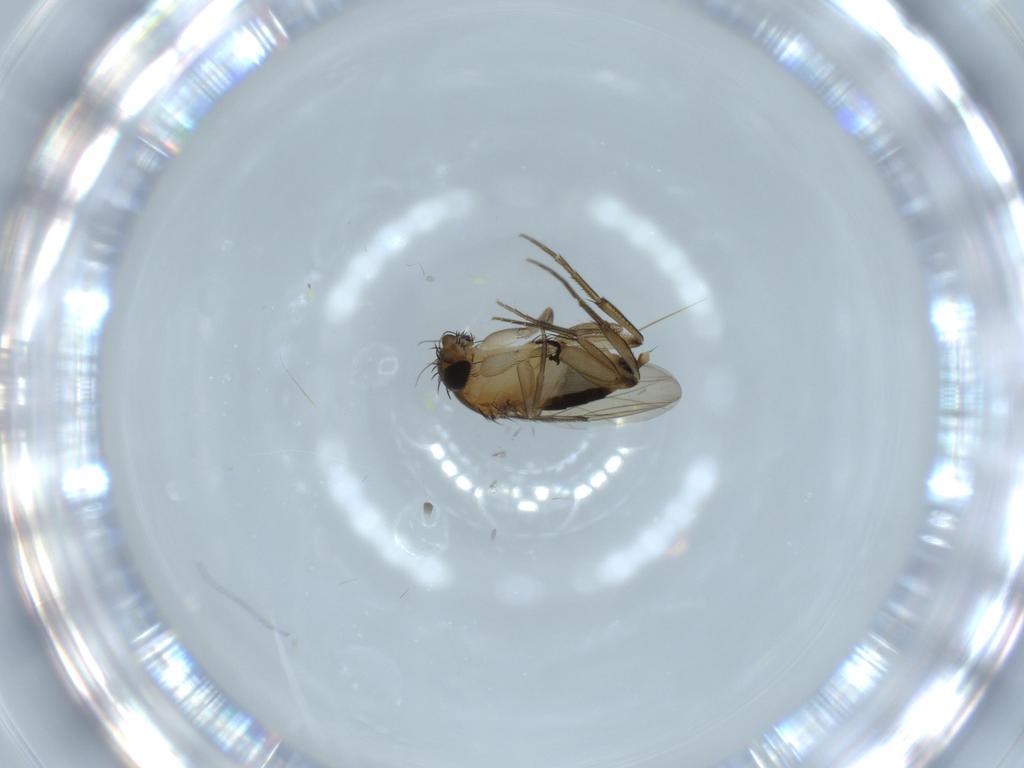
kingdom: Animalia
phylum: Arthropoda
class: Insecta
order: Diptera
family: Phoridae
